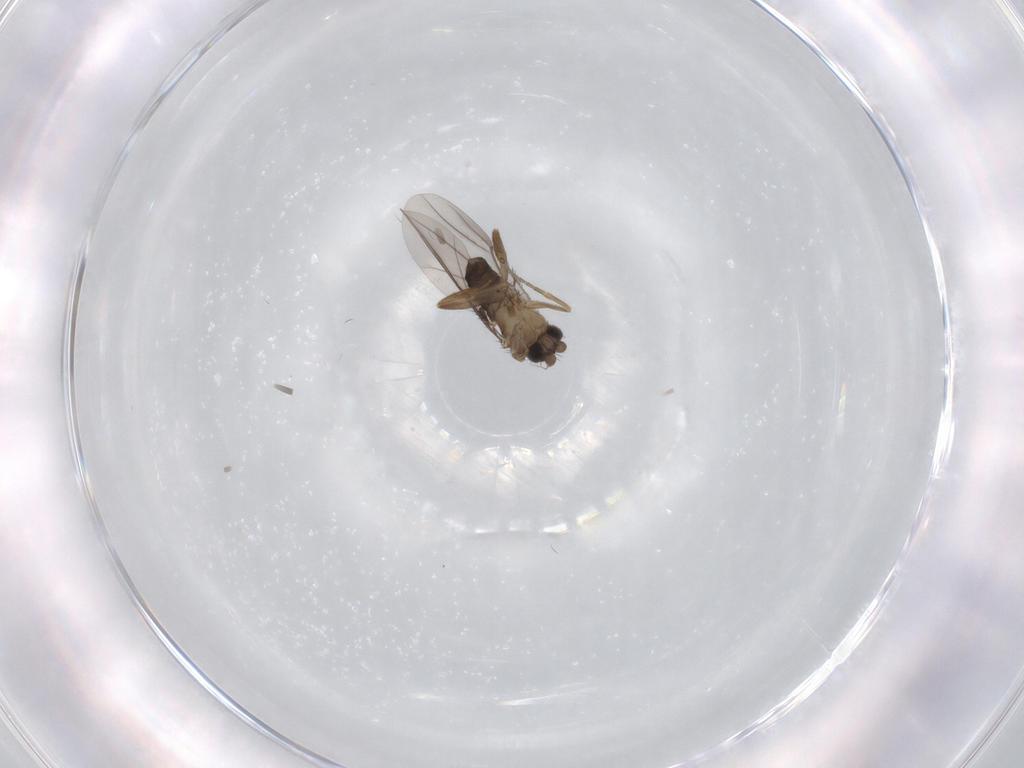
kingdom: Animalia
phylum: Arthropoda
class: Insecta
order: Diptera
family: Phoridae
